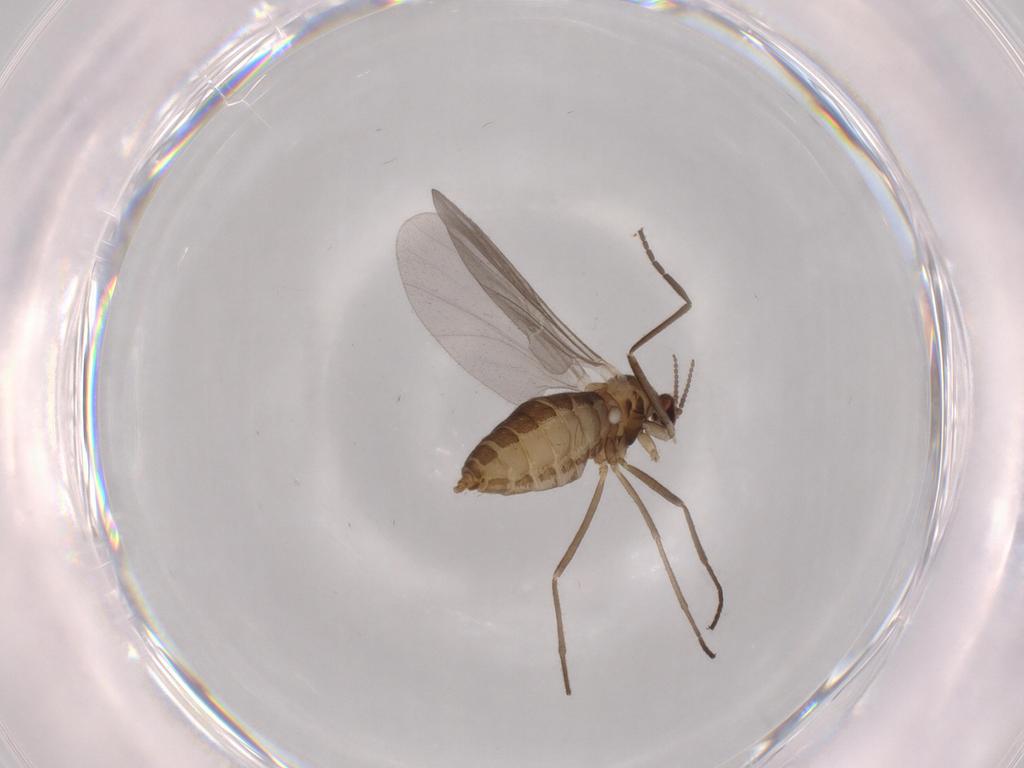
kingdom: Animalia
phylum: Arthropoda
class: Insecta
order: Diptera
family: Cecidomyiidae
